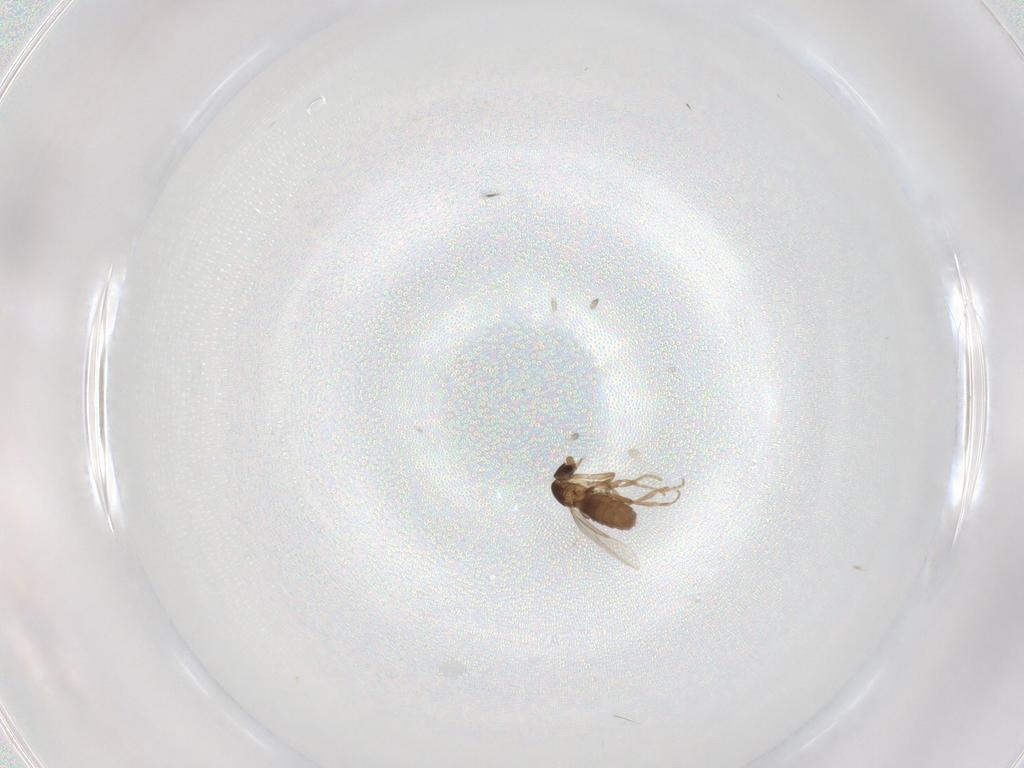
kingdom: Animalia
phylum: Arthropoda
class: Insecta
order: Diptera
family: Phoridae
